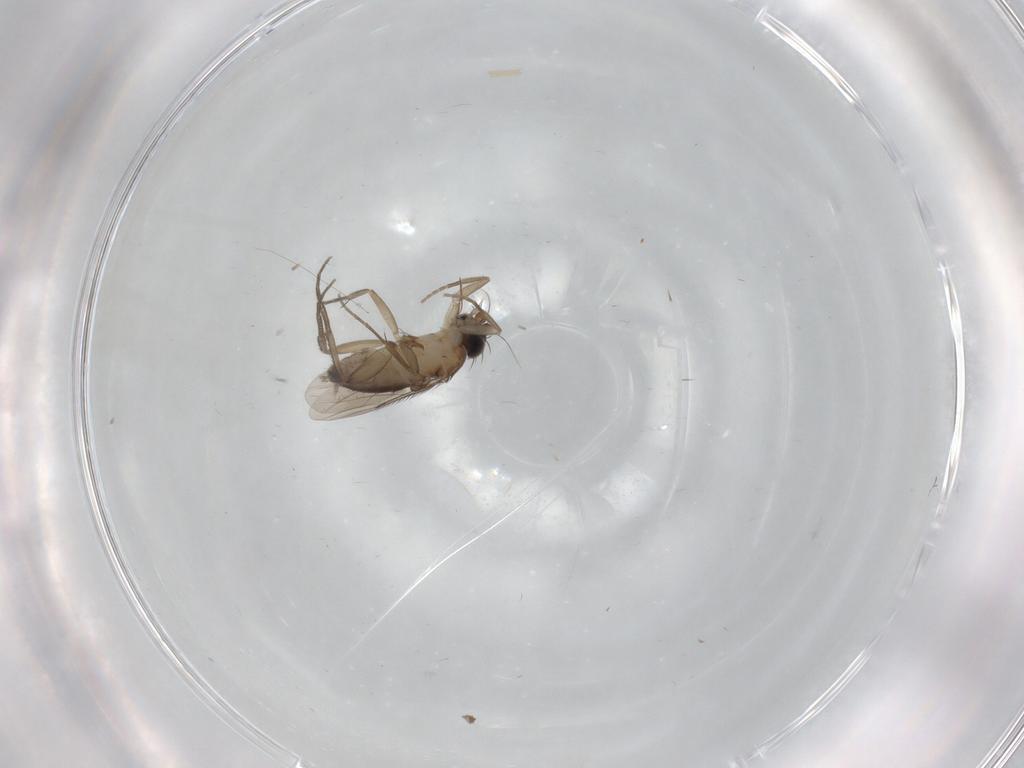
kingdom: Animalia
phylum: Arthropoda
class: Insecta
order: Diptera
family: Phoridae
